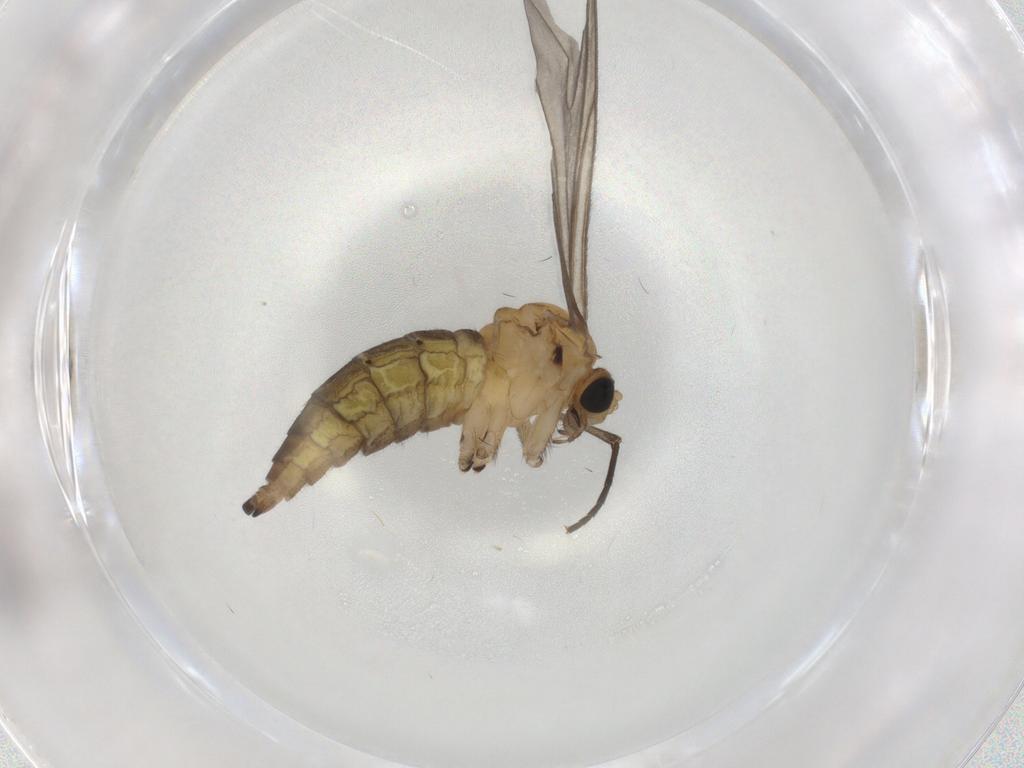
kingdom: Animalia
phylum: Arthropoda
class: Insecta
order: Diptera
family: Sciaridae
